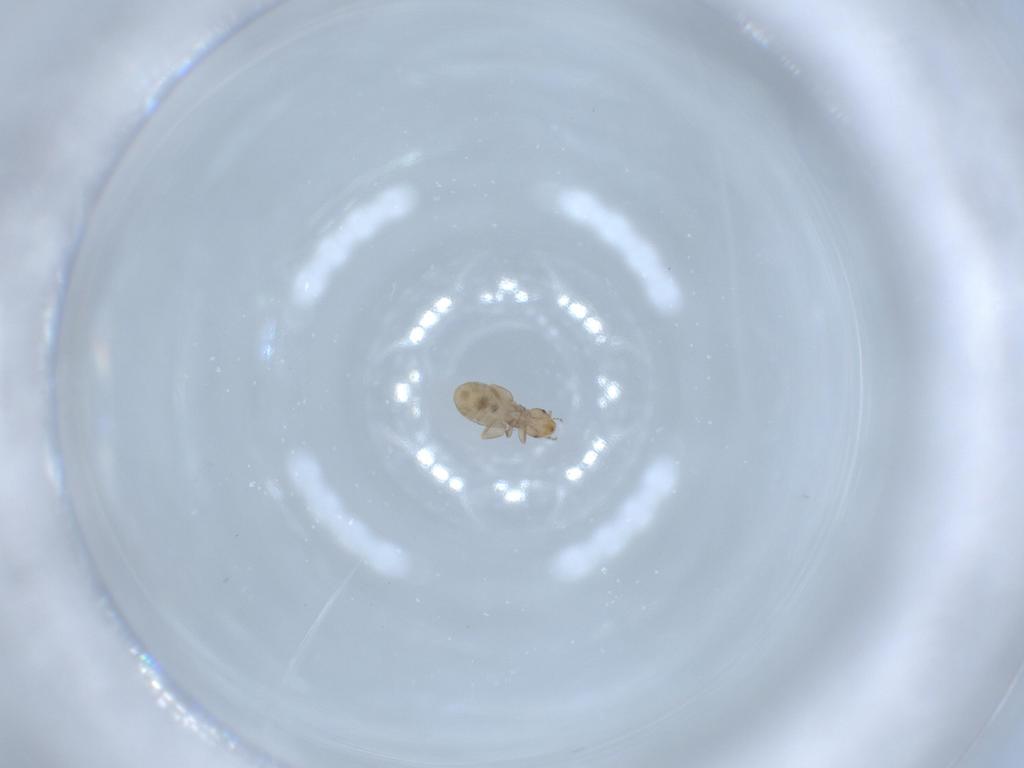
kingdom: Animalia
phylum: Arthropoda
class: Insecta
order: Psocodea
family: Liposcelididae
